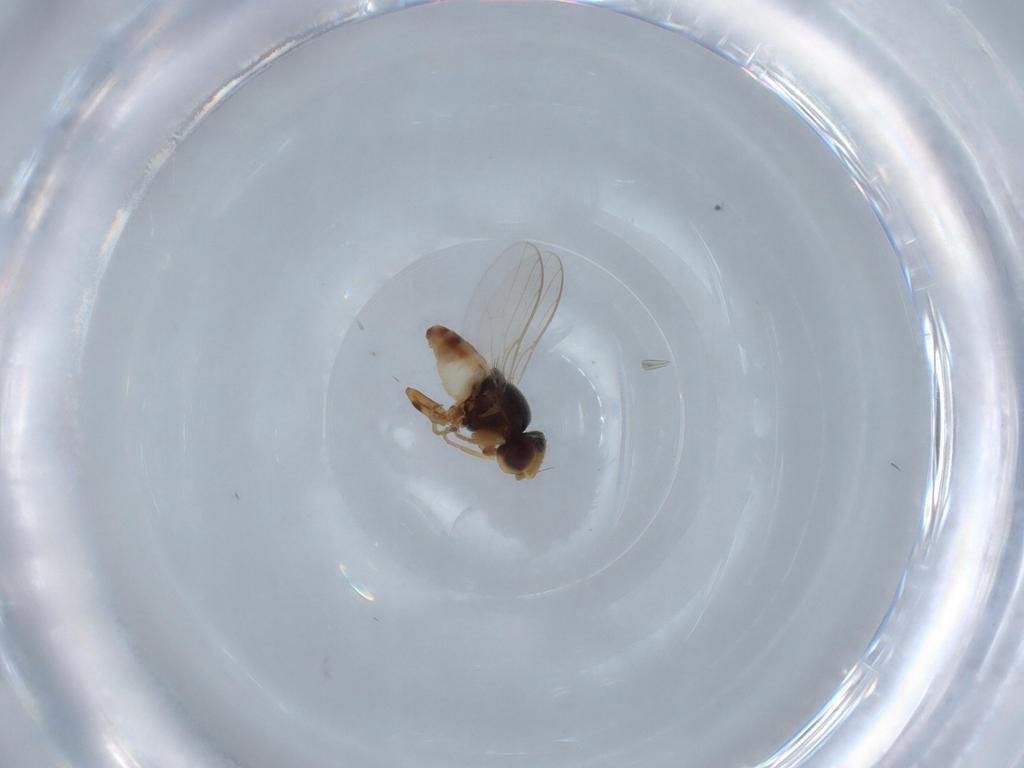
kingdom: Animalia
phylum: Arthropoda
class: Insecta
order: Diptera
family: Chloropidae
